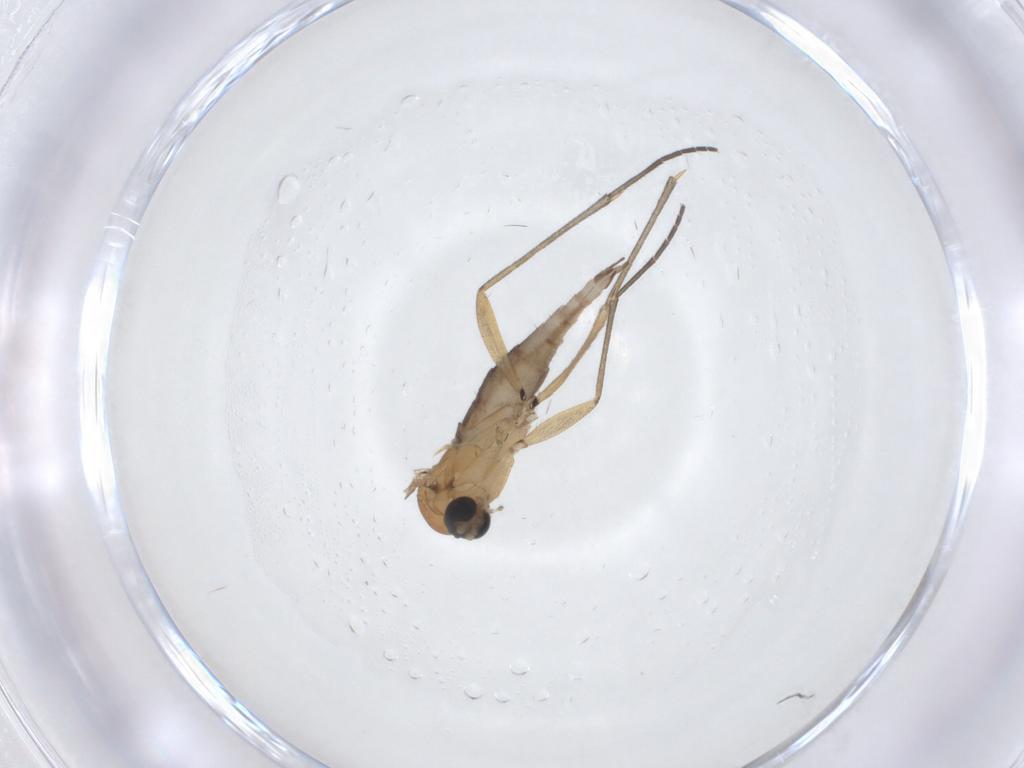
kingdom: Animalia
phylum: Arthropoda
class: Insecta
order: Diptera
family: Sciaridae
